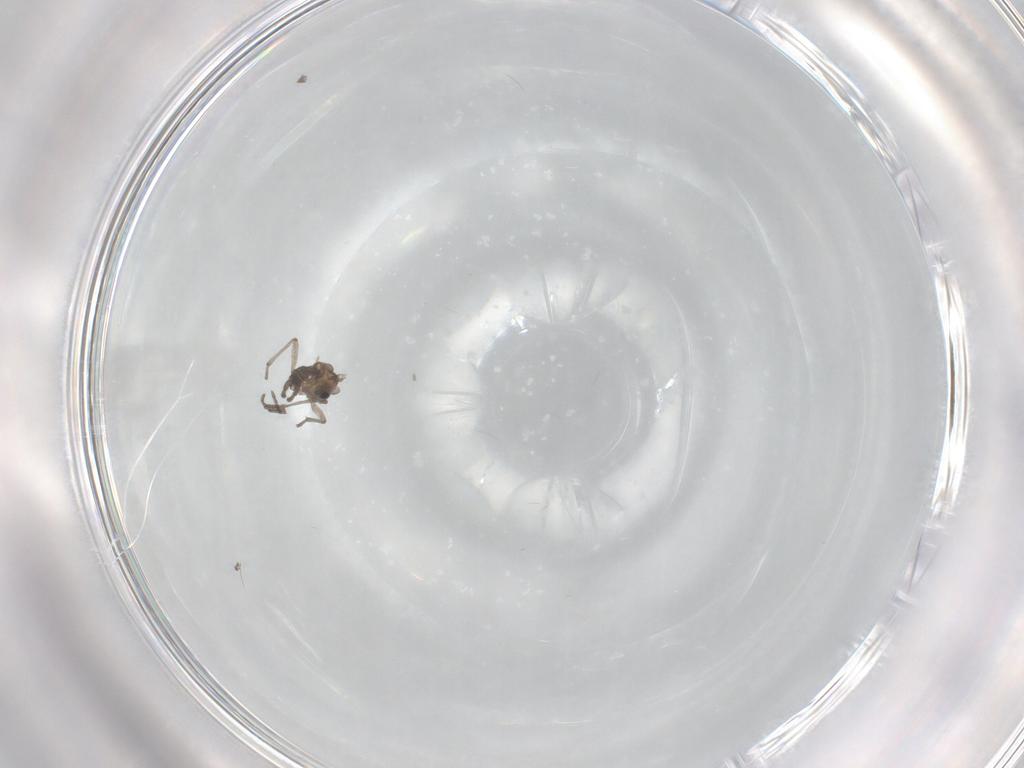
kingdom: Animalia
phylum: Arthropoda
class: Insecta
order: Diptera
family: Sciaridae
